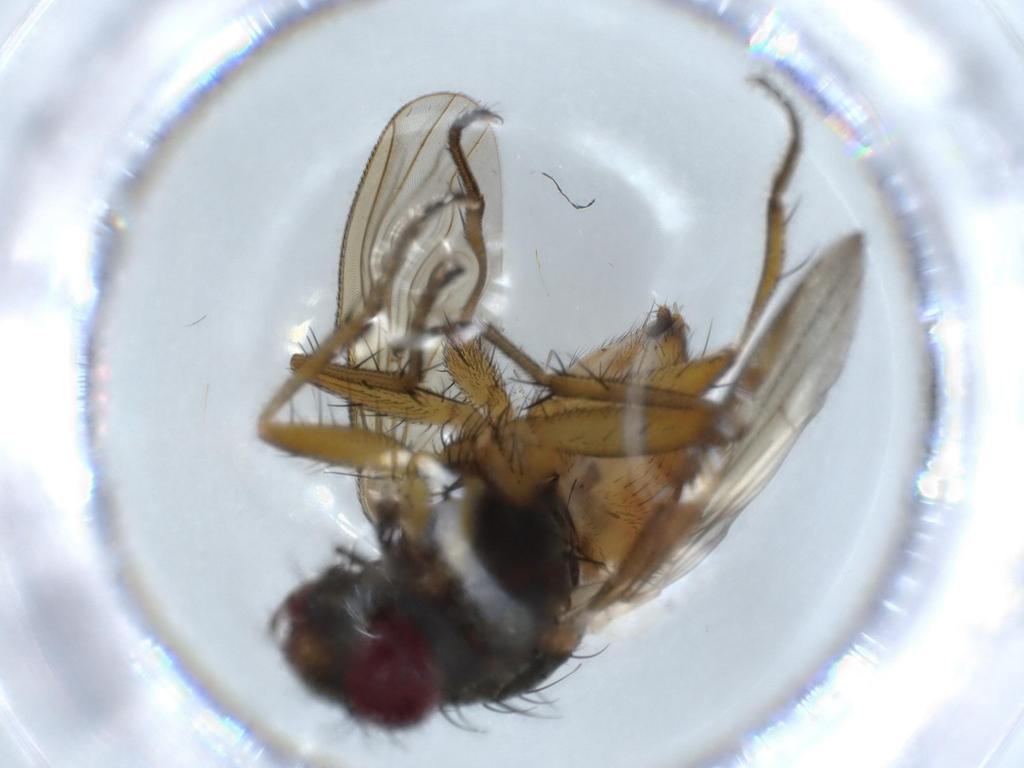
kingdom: Animalia
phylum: Arthropoda
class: Insecta
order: Diptera
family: Muscidae
